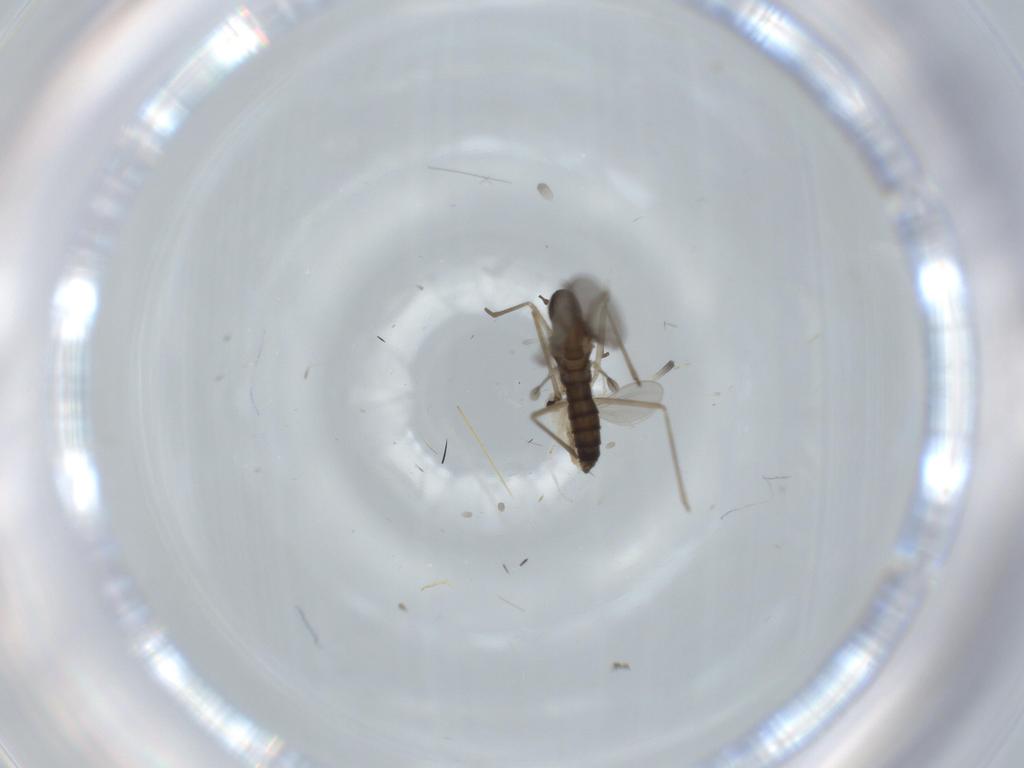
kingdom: Animalia
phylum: Arthropoda
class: Insecta
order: Diptera
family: Cecidomyiidae
